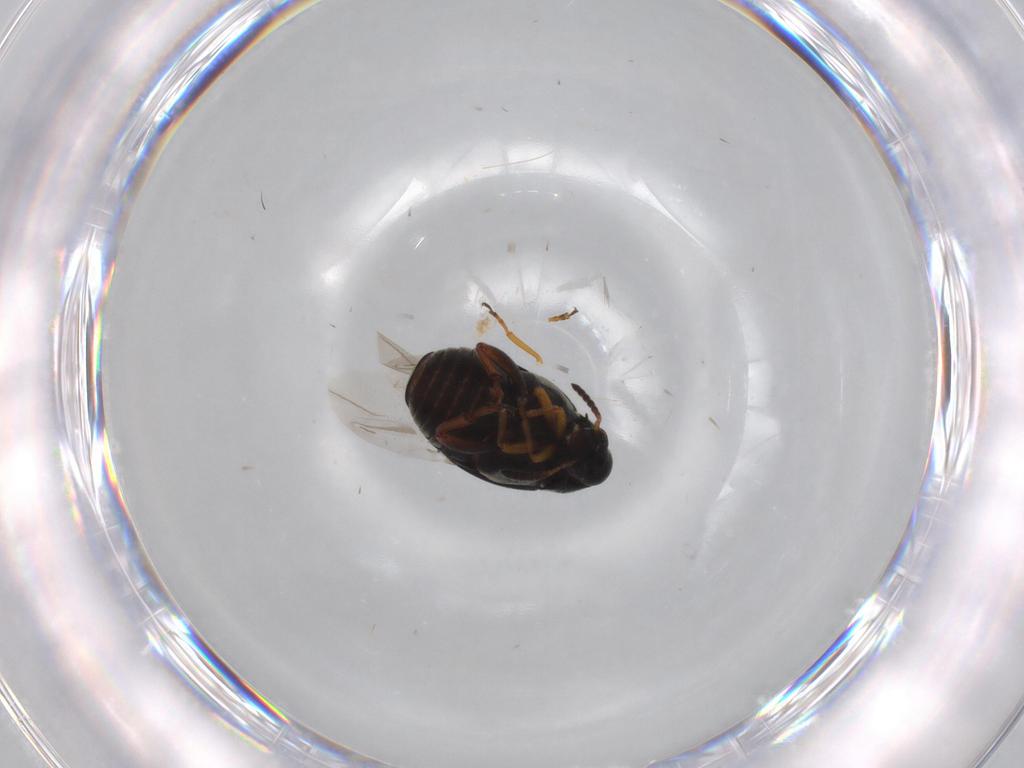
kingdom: Animalia
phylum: Arthropoda
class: Insecta
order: Coleoptera
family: Chrysomelidae
